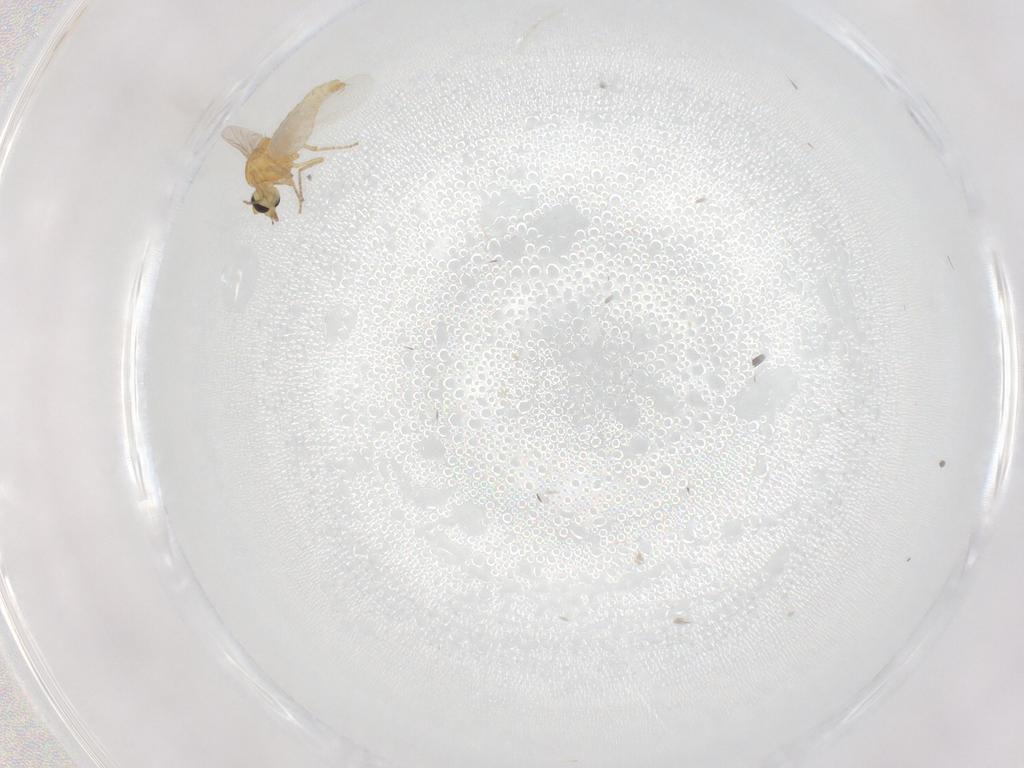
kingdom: Animalia
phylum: Arthropoda
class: Insecta
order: Diptera
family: Ceratopogonidae
